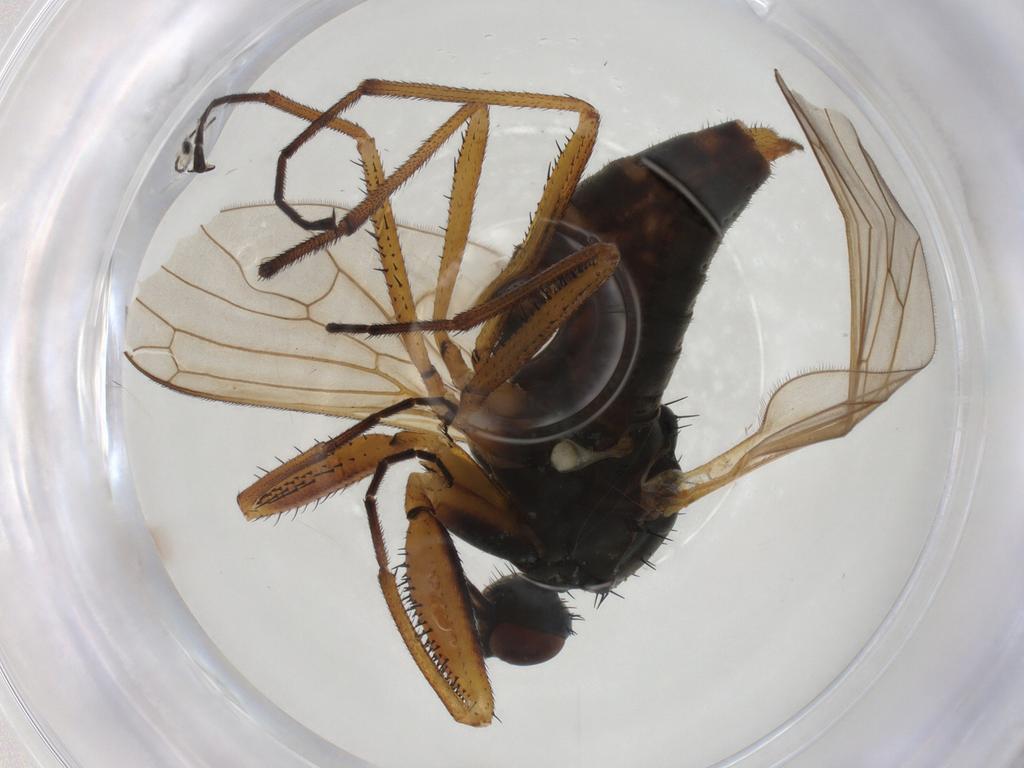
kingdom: Animalia
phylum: Arthropoda
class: Insecta
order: Diptera
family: Empididae
